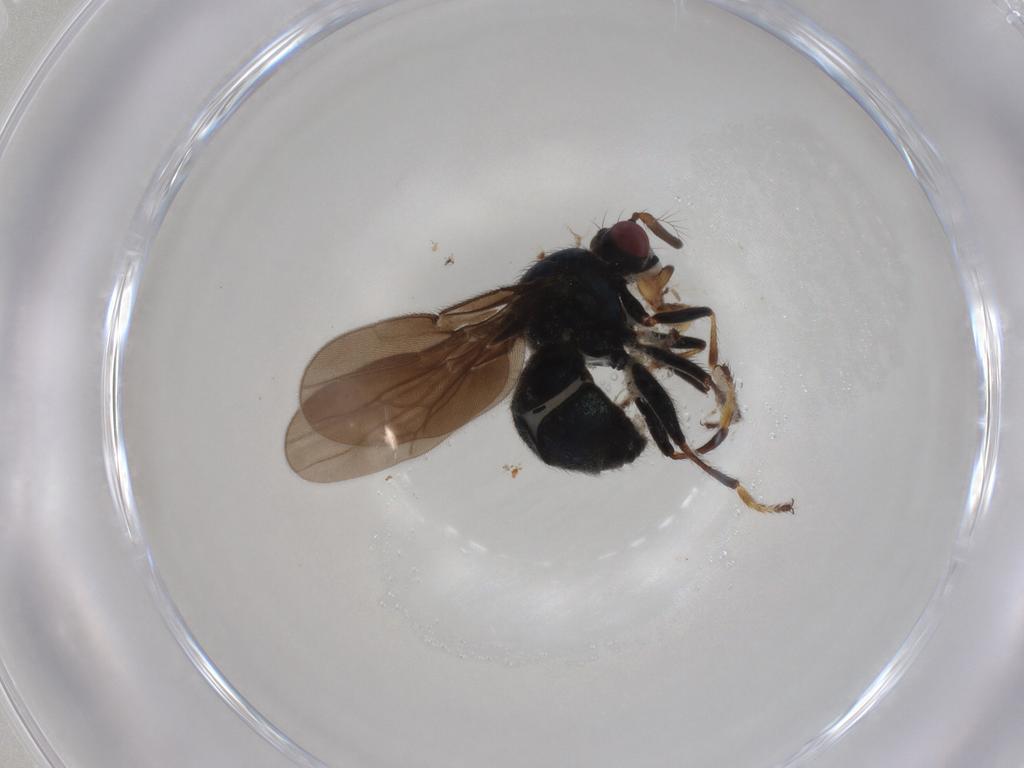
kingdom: Animalia
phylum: Arthropoda
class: Insecta
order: Diptera
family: Ephydridae
